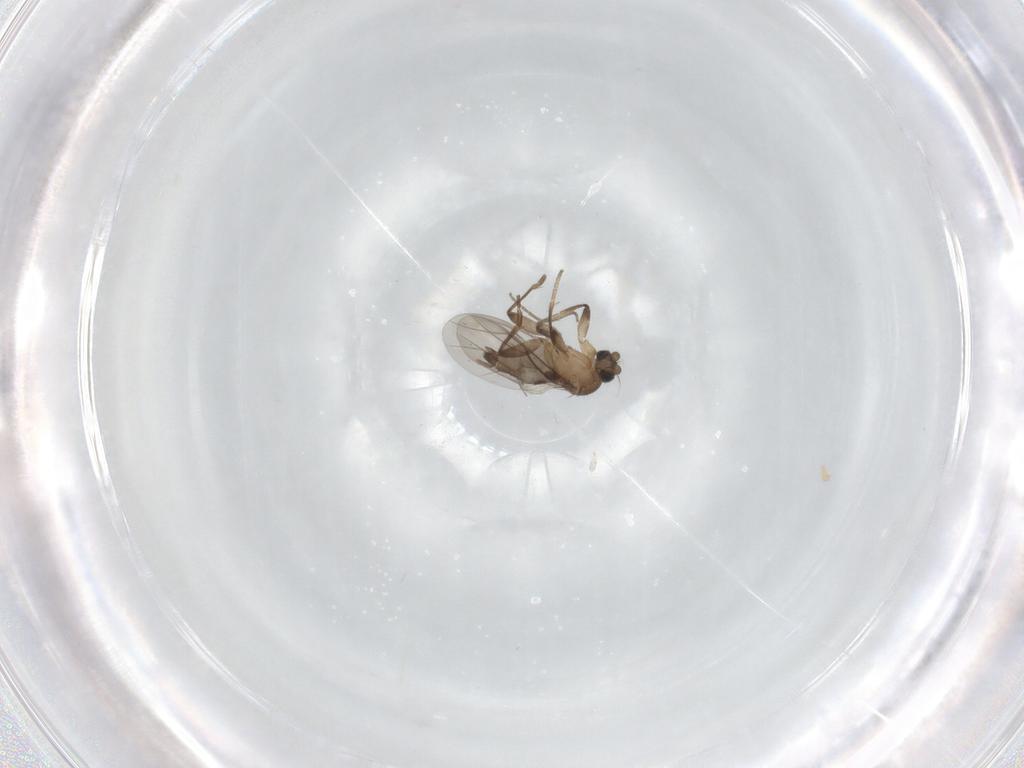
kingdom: Animalia
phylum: Arthropoda
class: Insecta
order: Diptera
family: Phoridae
